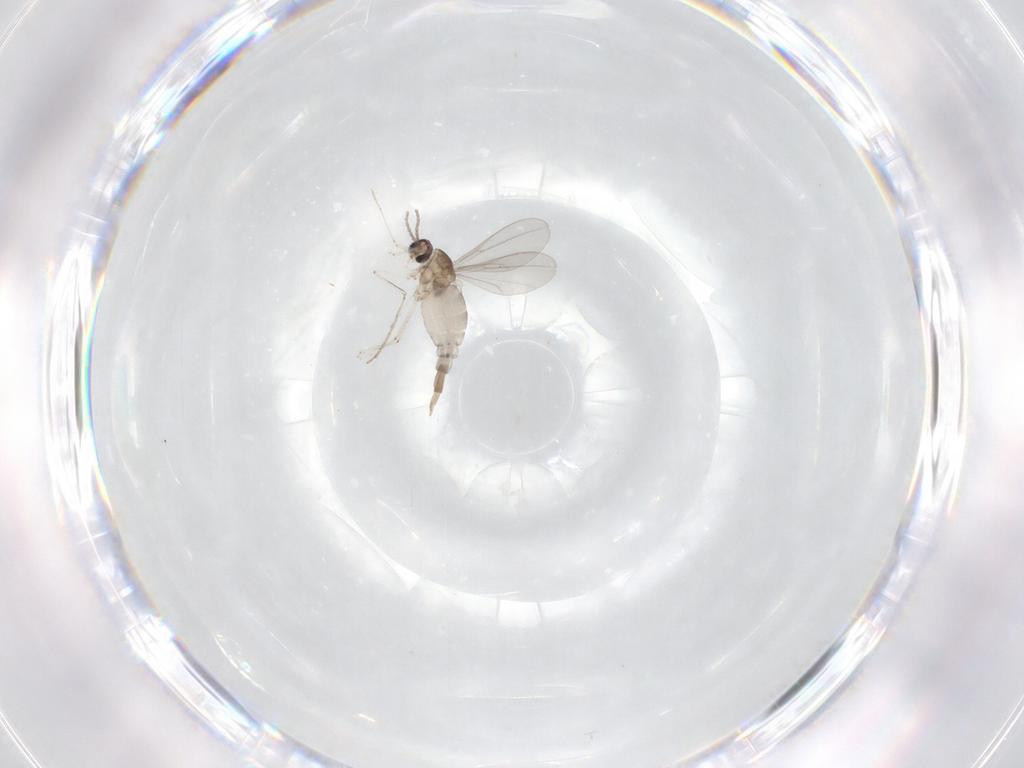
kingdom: Animalia
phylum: Arthropoda
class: Insecta
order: Diptera
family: Cecidomyiidae
